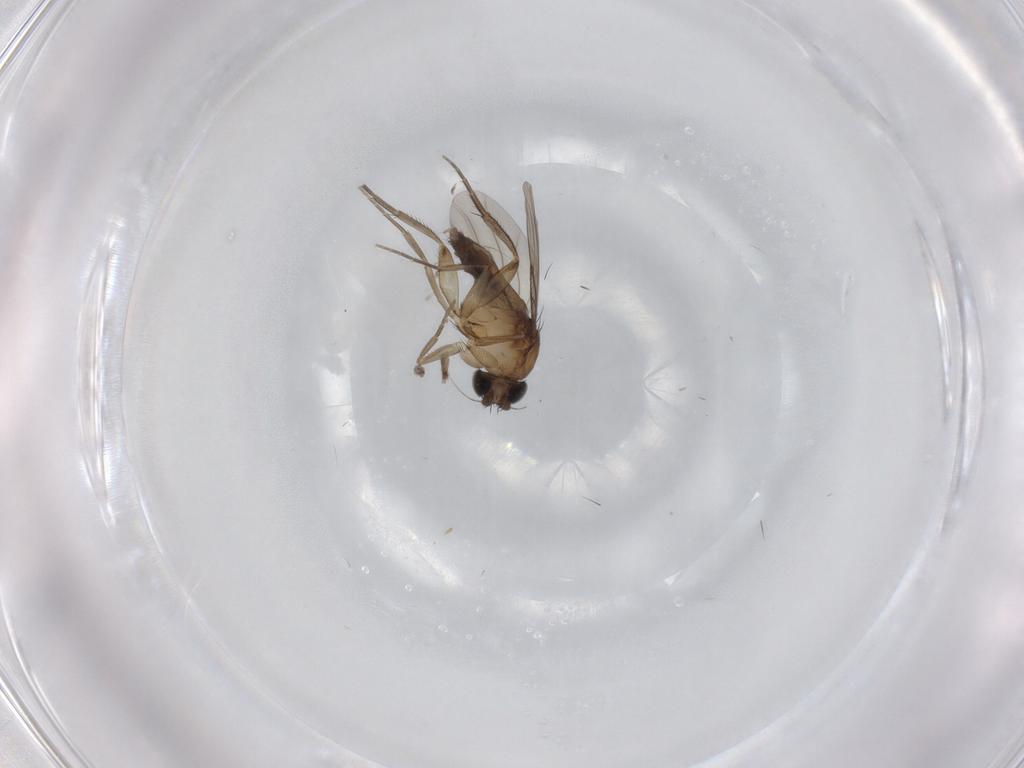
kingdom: Animalia
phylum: Arthropoda
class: Insecta
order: Diptera
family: Phoridae
